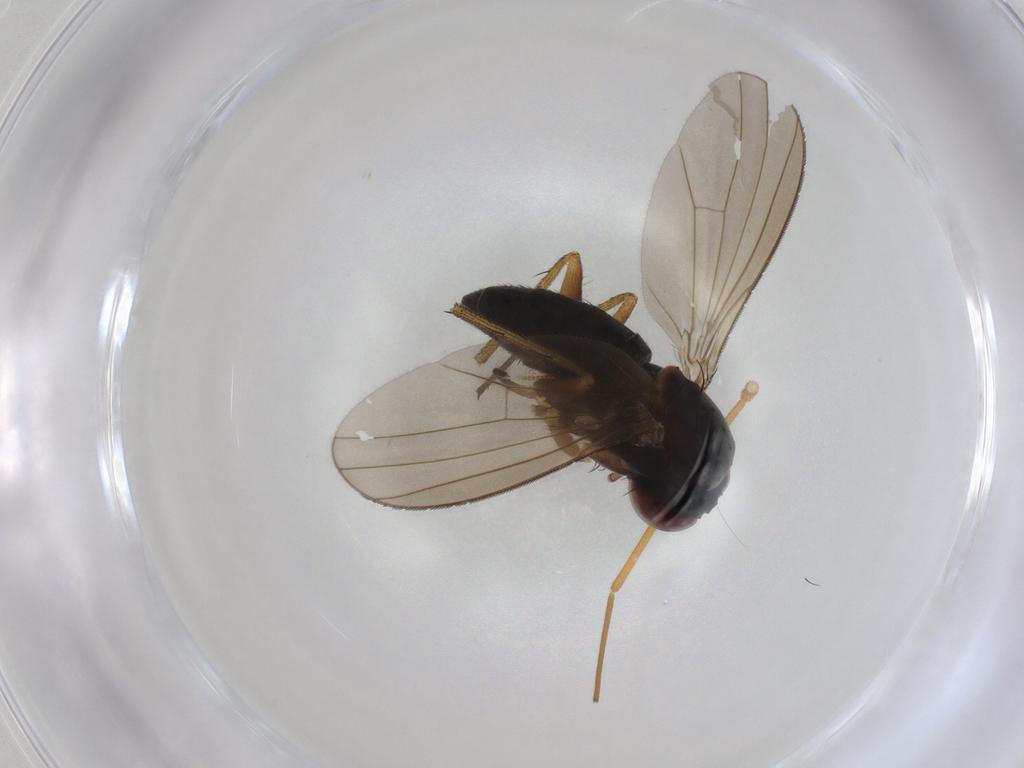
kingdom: Animalia
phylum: Arthropoda
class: Insecta
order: Diptera
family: Dolichopodidae
